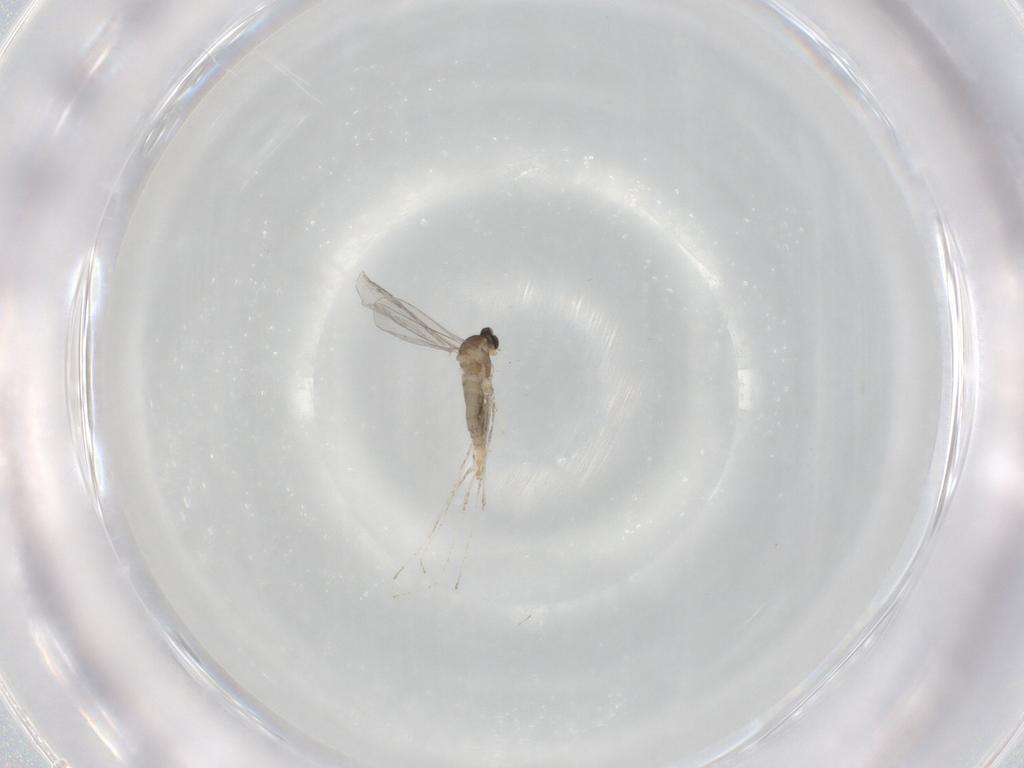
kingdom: Animalia
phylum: Arthropoda
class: Insecta
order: Diptera
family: Cecidomyiidae
